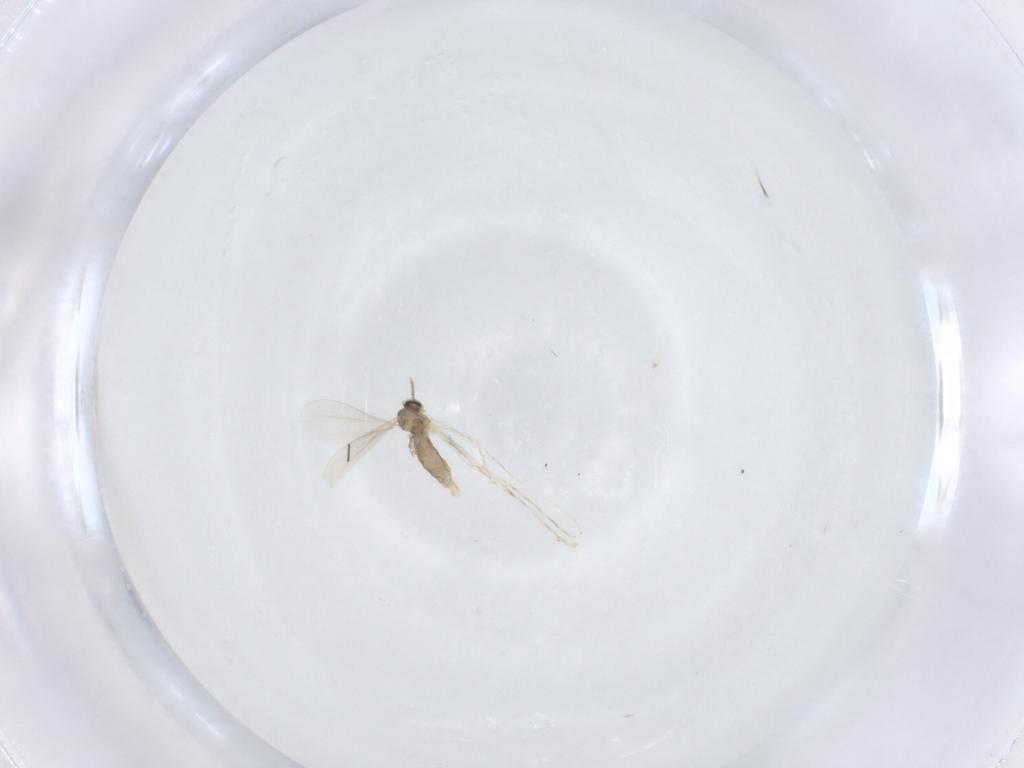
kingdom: Animalia
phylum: Arthropoda
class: Insecta
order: Diptera
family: Cecidomyiidae
